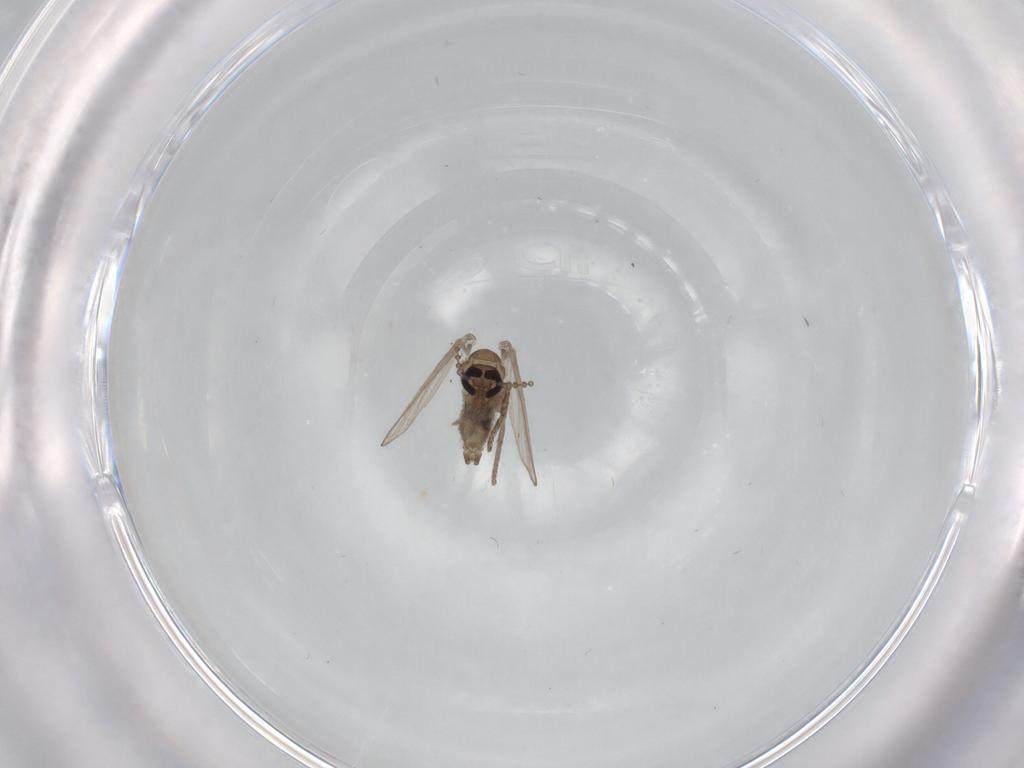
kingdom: Animalia
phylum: Arthropoda
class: Insecta
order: Diptera
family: Psychodidae
